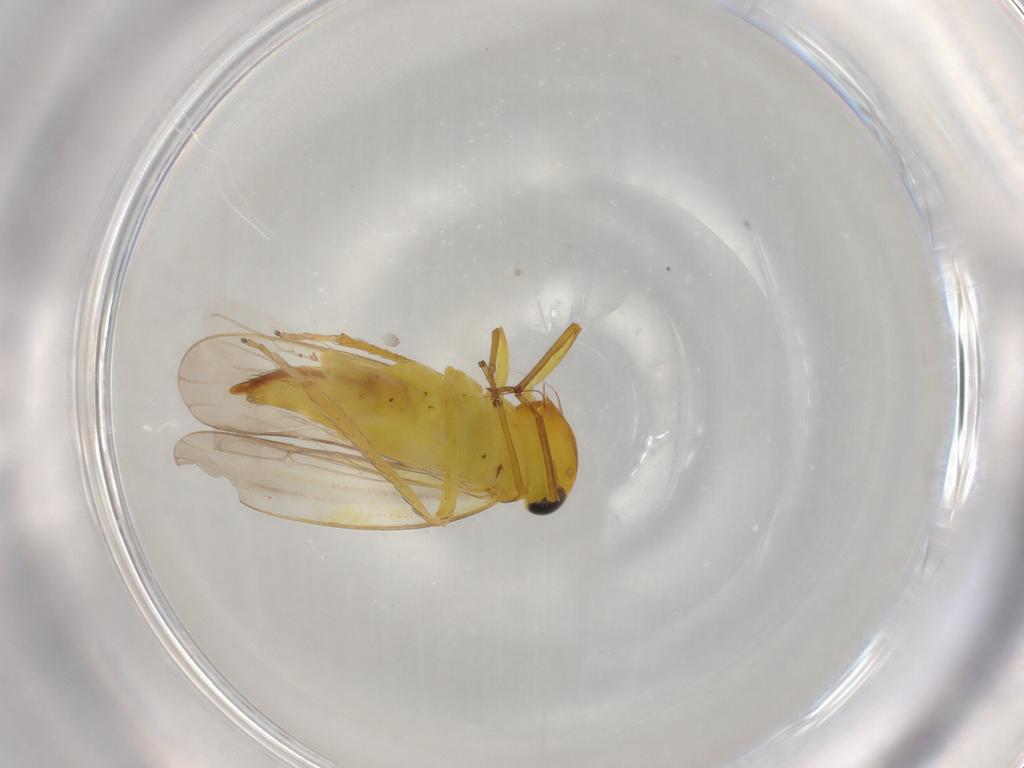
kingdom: Animalia
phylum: Arthropoda
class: Insecta
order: Hemiptera
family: Cicadellidae
